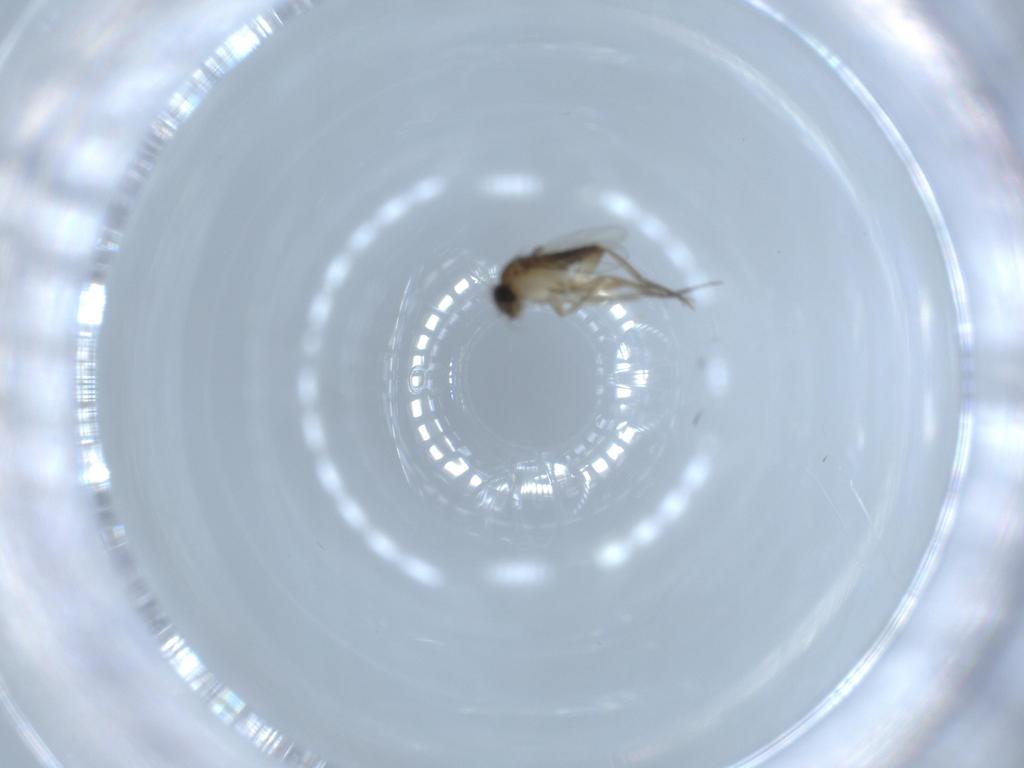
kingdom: Animalia
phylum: Arthropoda
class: Insecta
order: Diptera
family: Phoridae
